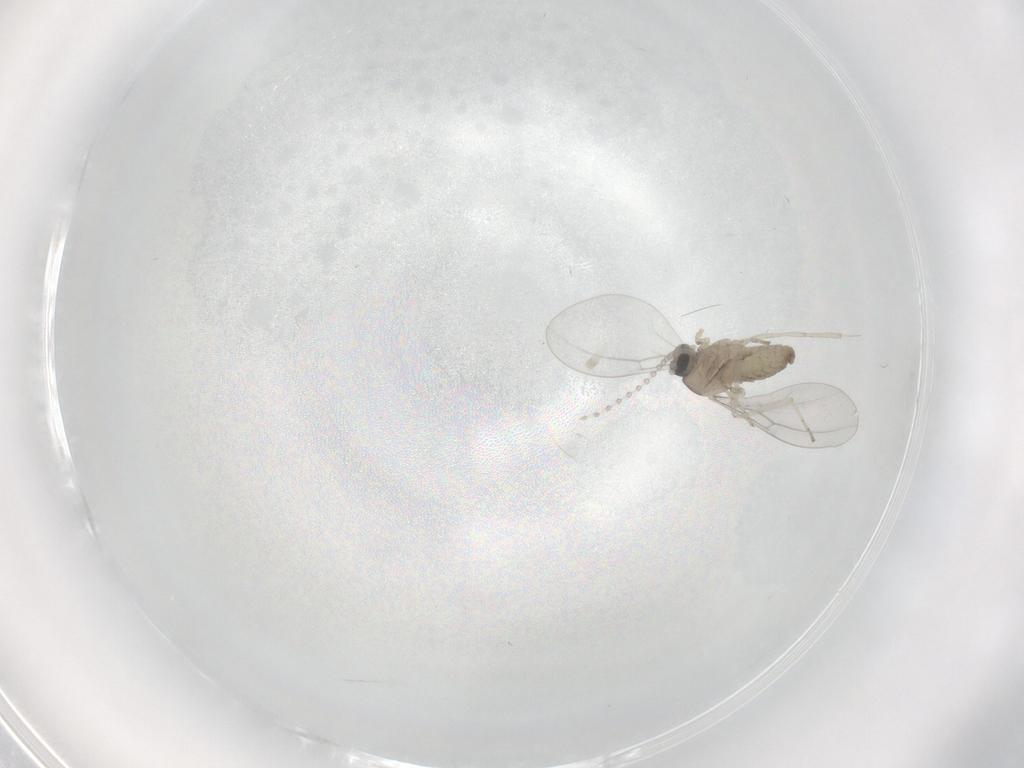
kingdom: Animalia
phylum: Arthropoda
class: Insecta
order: Diptera
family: Cecidomyiidae
